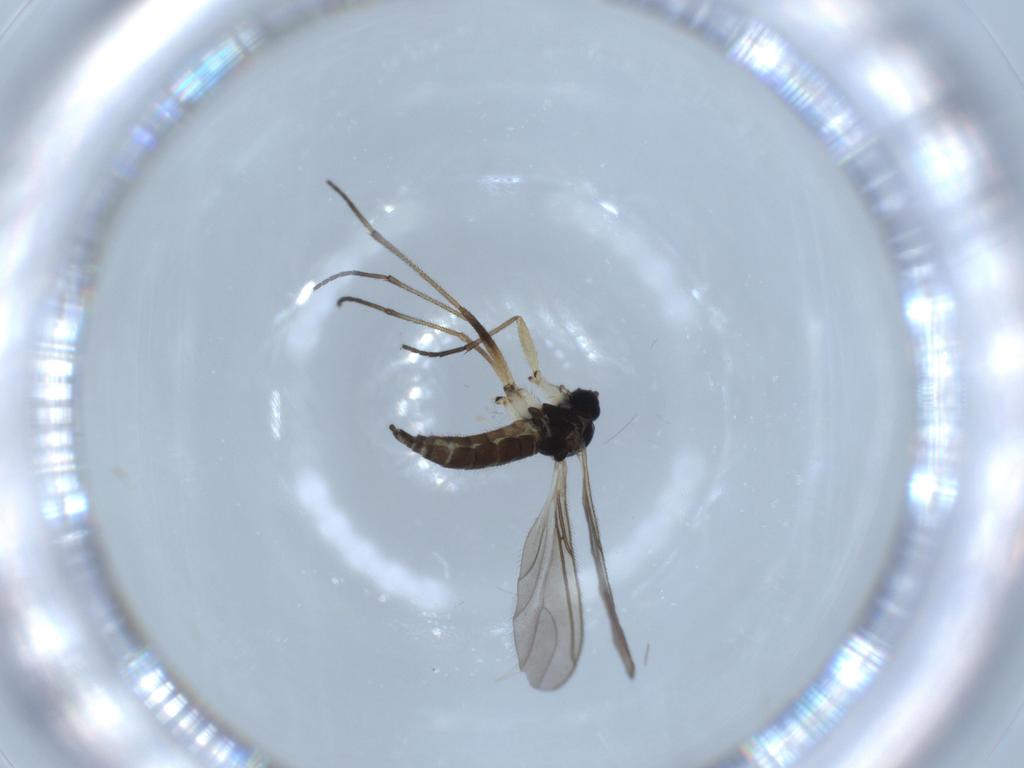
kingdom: Animalia
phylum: Arthropoda
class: Insecta
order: Diptera
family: Sciaridae
